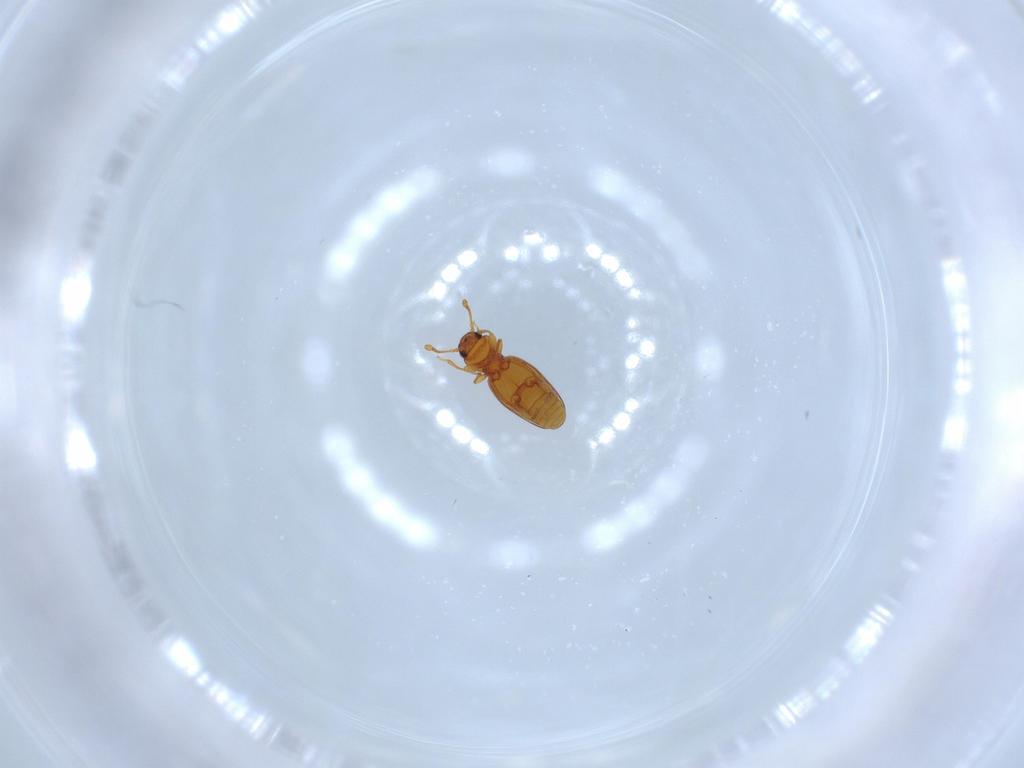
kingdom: Animalia
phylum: Arthropoda
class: Insecta
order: Coleoptera
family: Endomychidae
